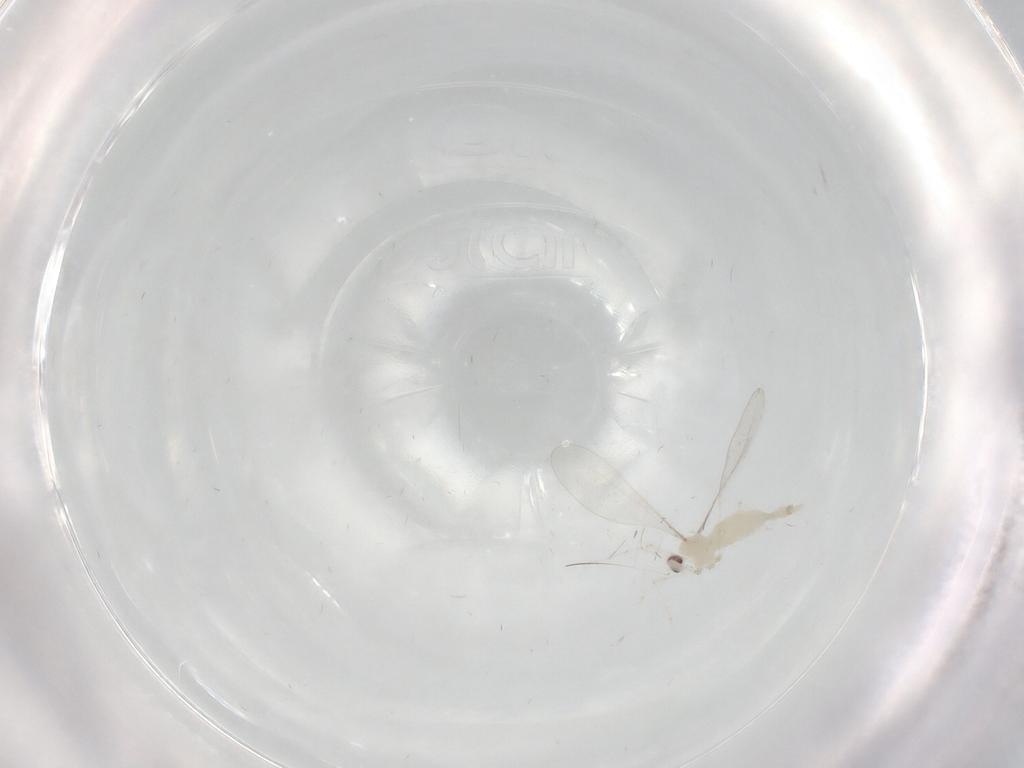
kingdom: Animalia
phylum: Arthropoda
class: Insecta
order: Diptera
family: Cecidomyiidae
